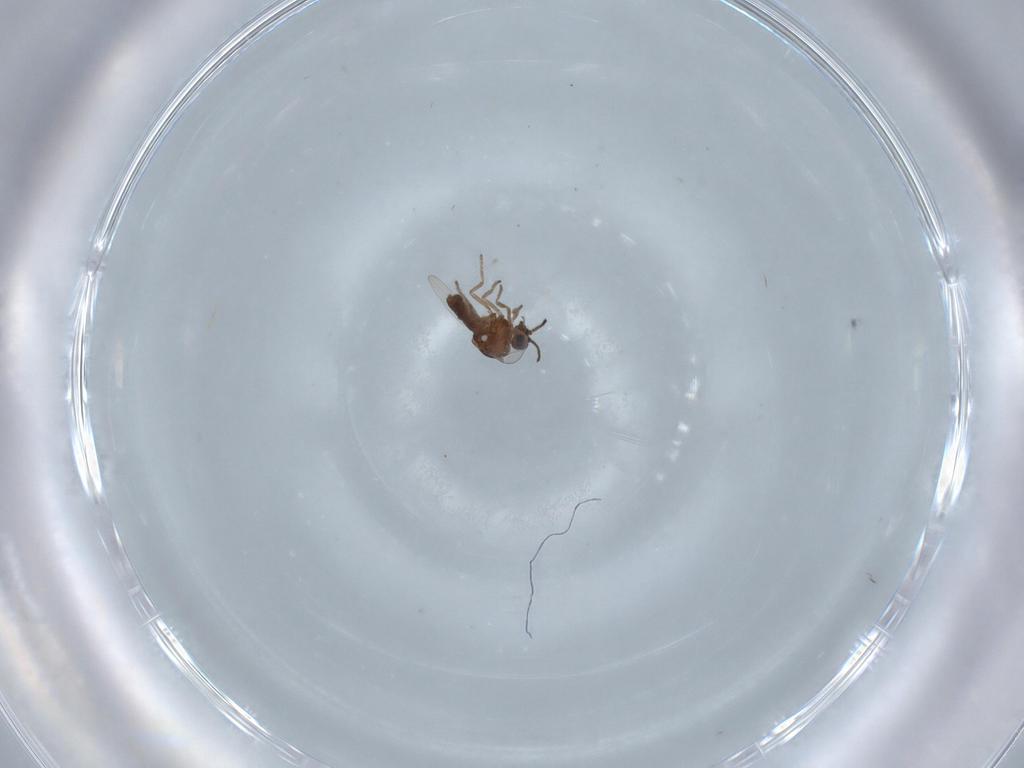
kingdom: Animalia
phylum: Arthropoda
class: Insecta
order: Diptera
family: Ceratopogonidae
